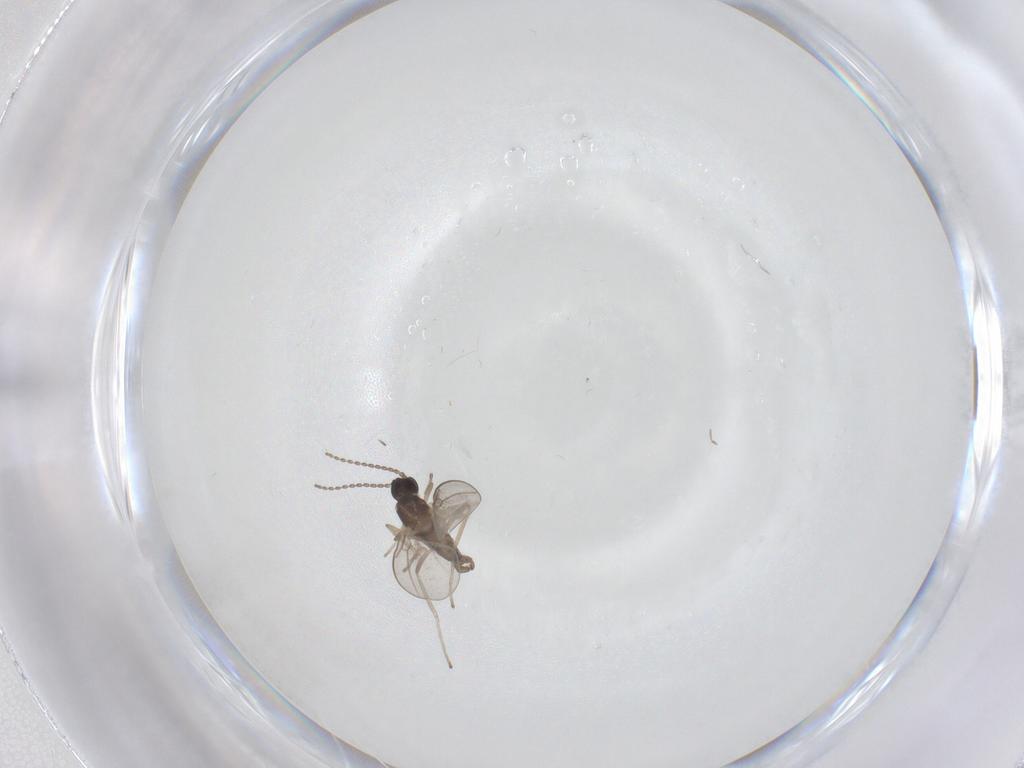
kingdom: Animalia
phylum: Arthropoda
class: Insecta
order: Diptera
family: Cecidomyiidae
